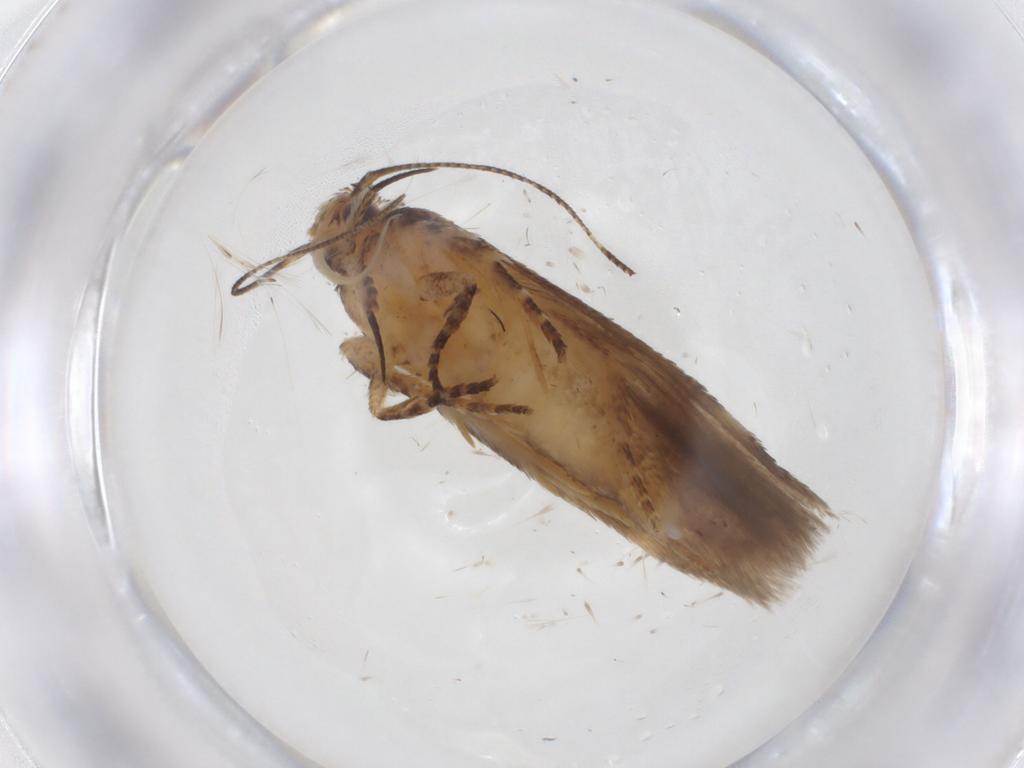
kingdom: Animalia
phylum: Arthropoda
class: Insecta
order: Lepidoptera
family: Gelechiidae
